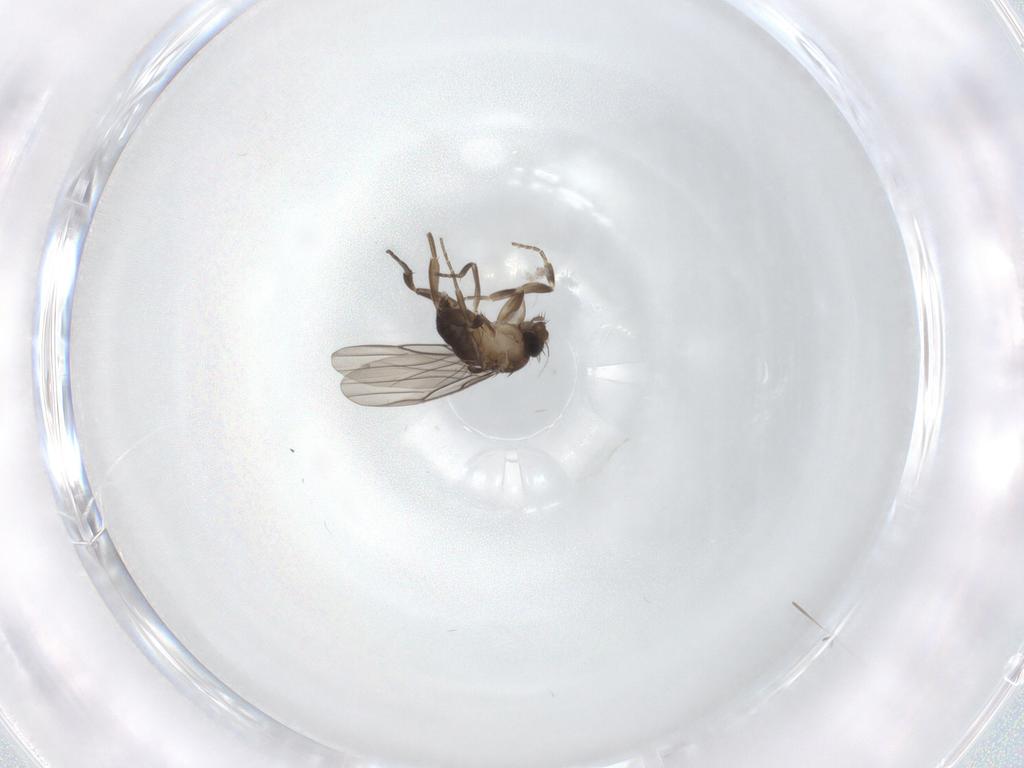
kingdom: Animalia
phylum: Arthropoda
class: Insecta
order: Diptera
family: Phoridae
